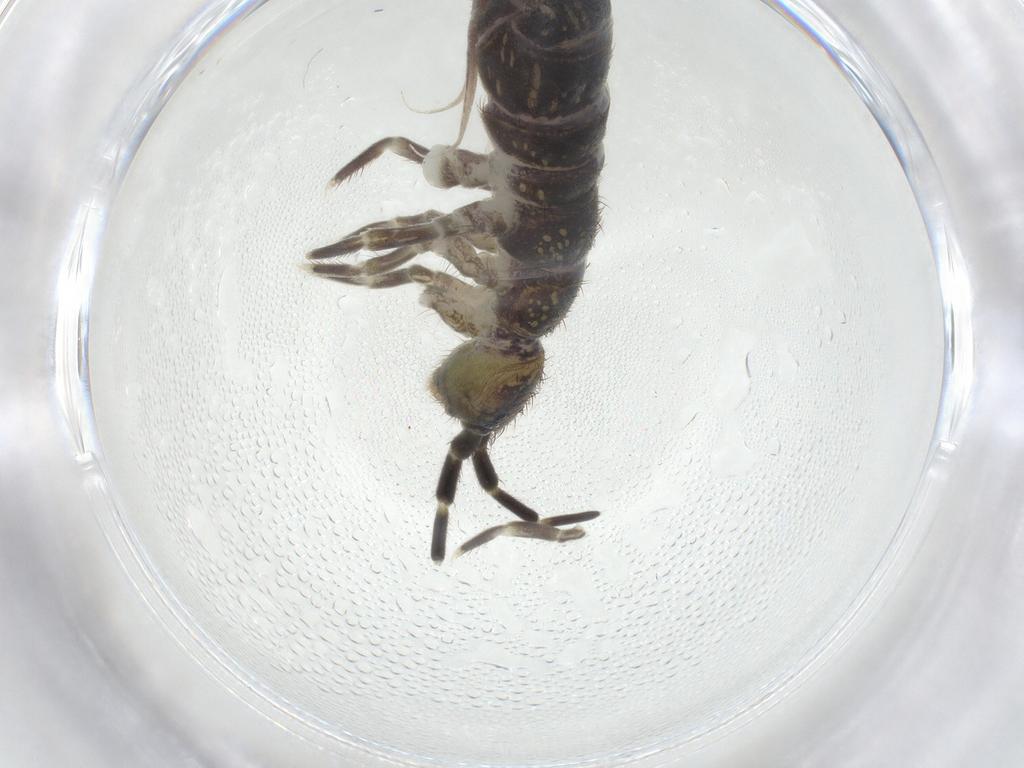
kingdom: Animalia
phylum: Arthropoda
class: Collembola
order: Entomobryomorpha
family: Isotomidae
